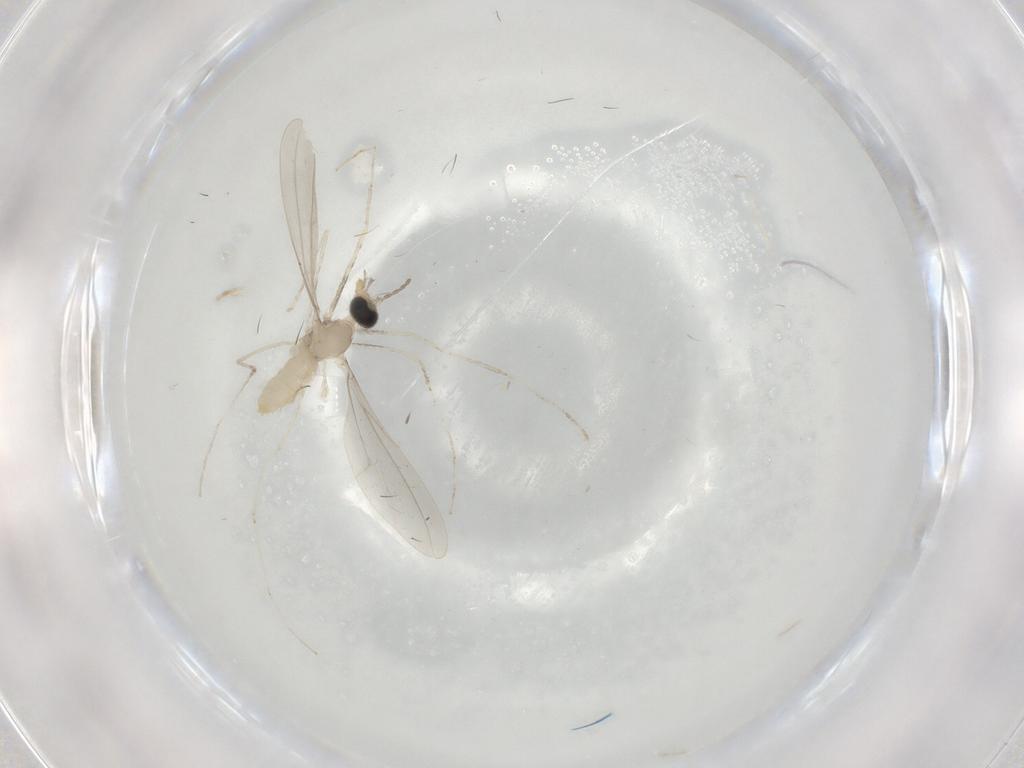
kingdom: Animalia
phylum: Arthropoda
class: Insecta
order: Diptera
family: Cecidomyiidae
